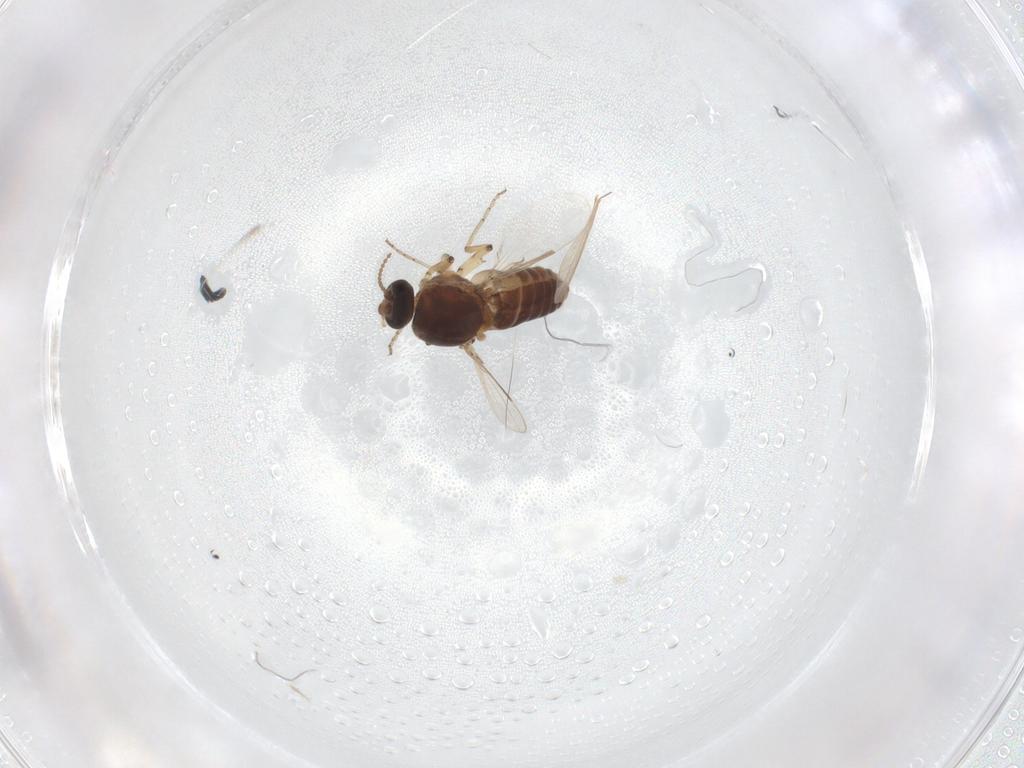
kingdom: Animalia
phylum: Arthropoda
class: Insecta
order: Diptera
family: Ceratopogonidae
